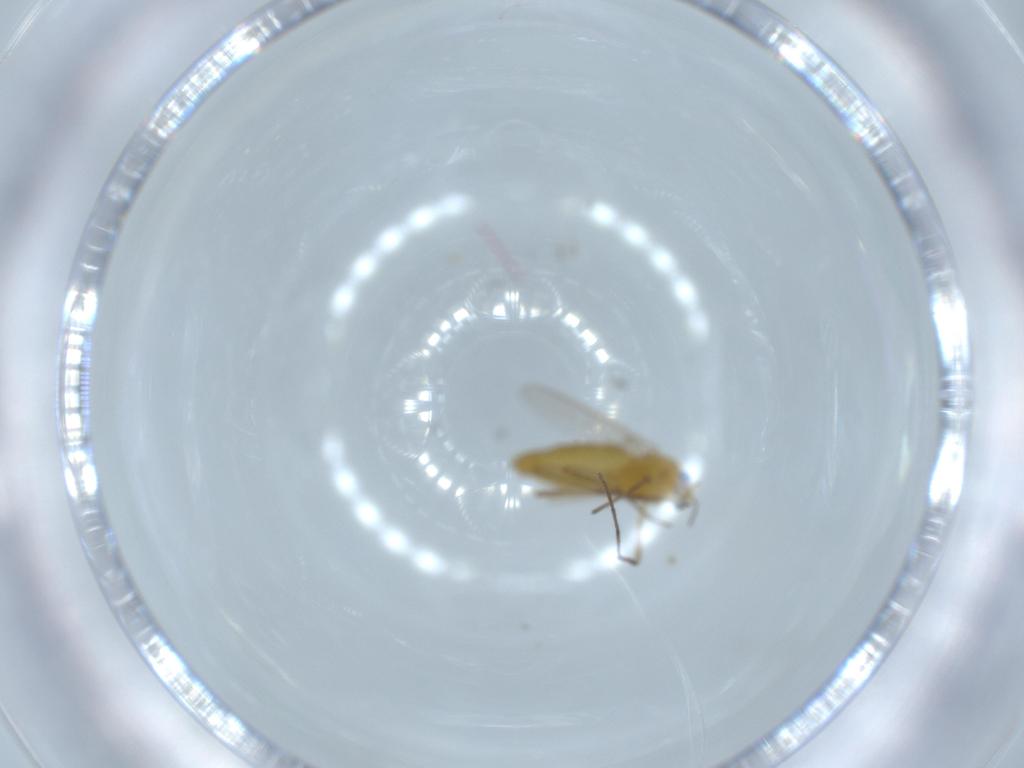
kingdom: Animalia
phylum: Arthropoda
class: Insecta
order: Diptera
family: Chironomidae
